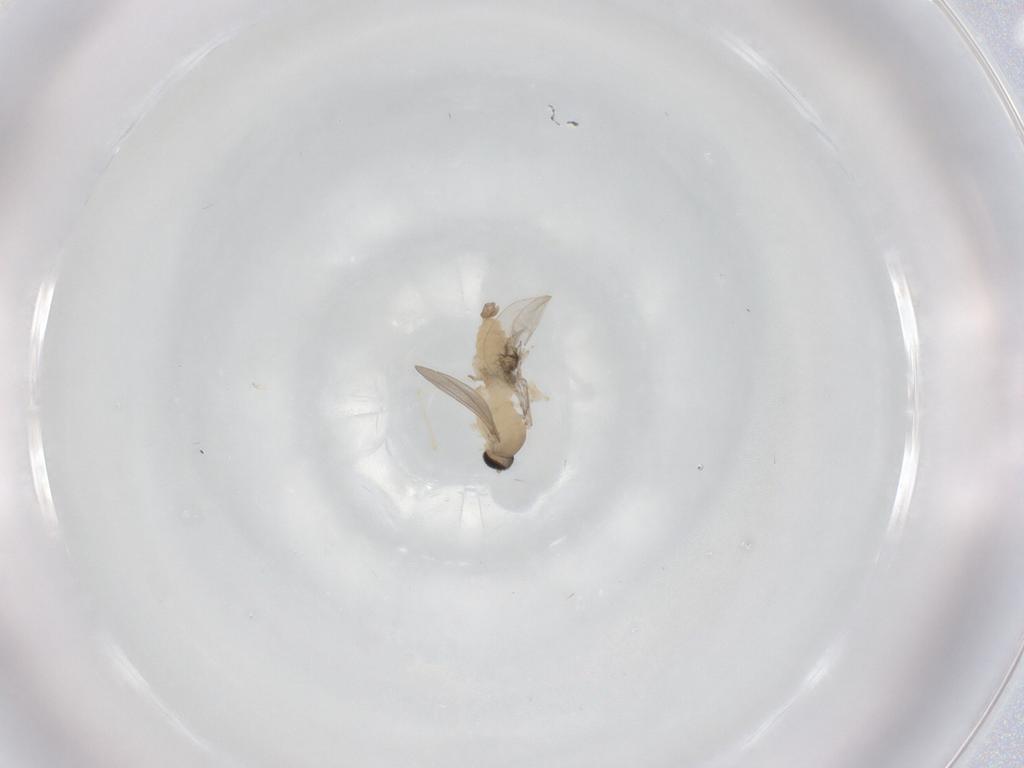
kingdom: Animalia
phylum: Arthropoda
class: Insecta
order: Diptera
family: Cecidomyiidae
